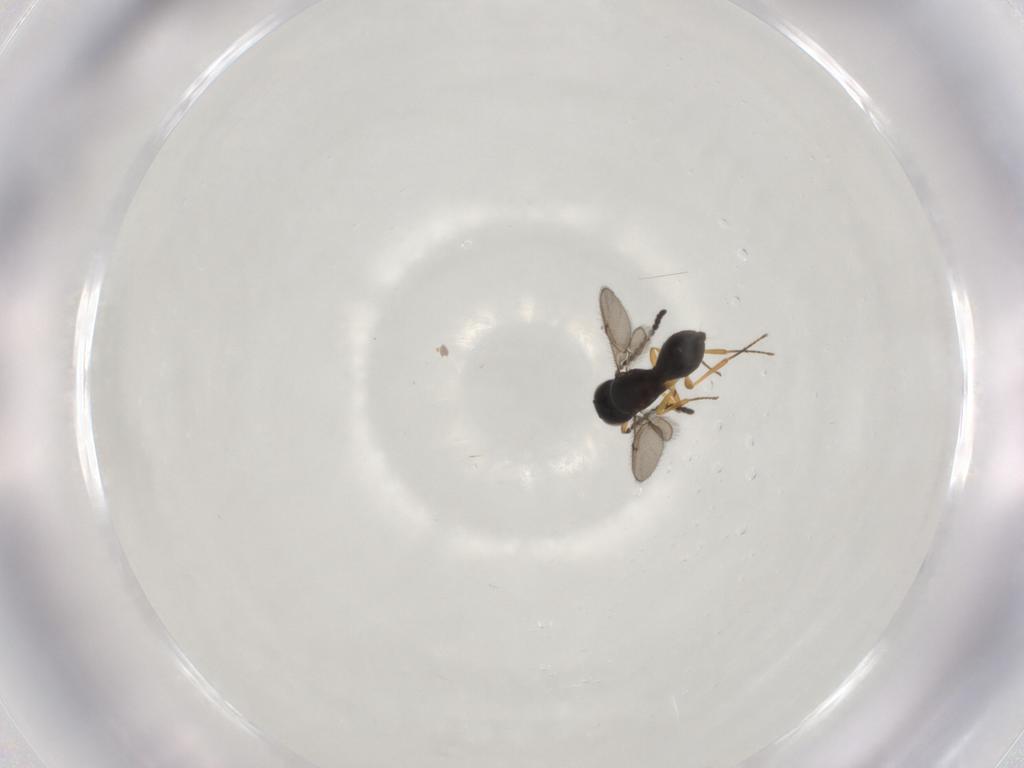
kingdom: Animalia
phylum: Arthropoda
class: Insecta
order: Hymenoptera
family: Scelionidae
